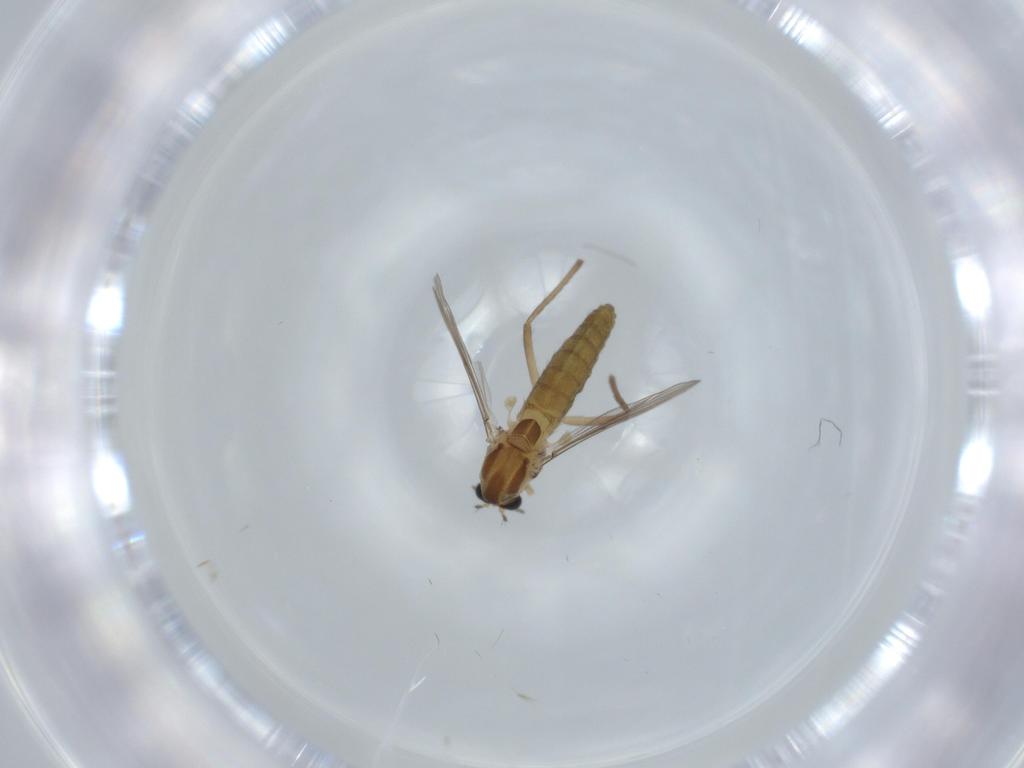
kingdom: Animalia
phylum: Arthropoda
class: Insecta
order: Diptera
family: Chironomidae
